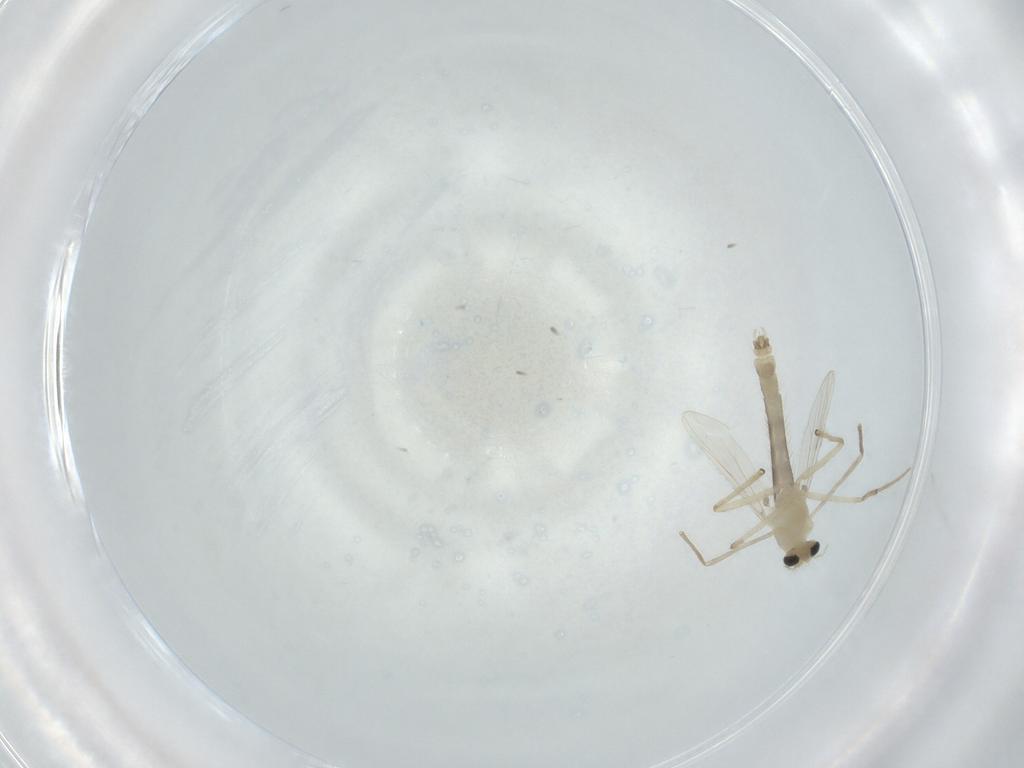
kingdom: Animalia
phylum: Arthropoda
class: Insecta
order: Diptera
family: Chironomidae
